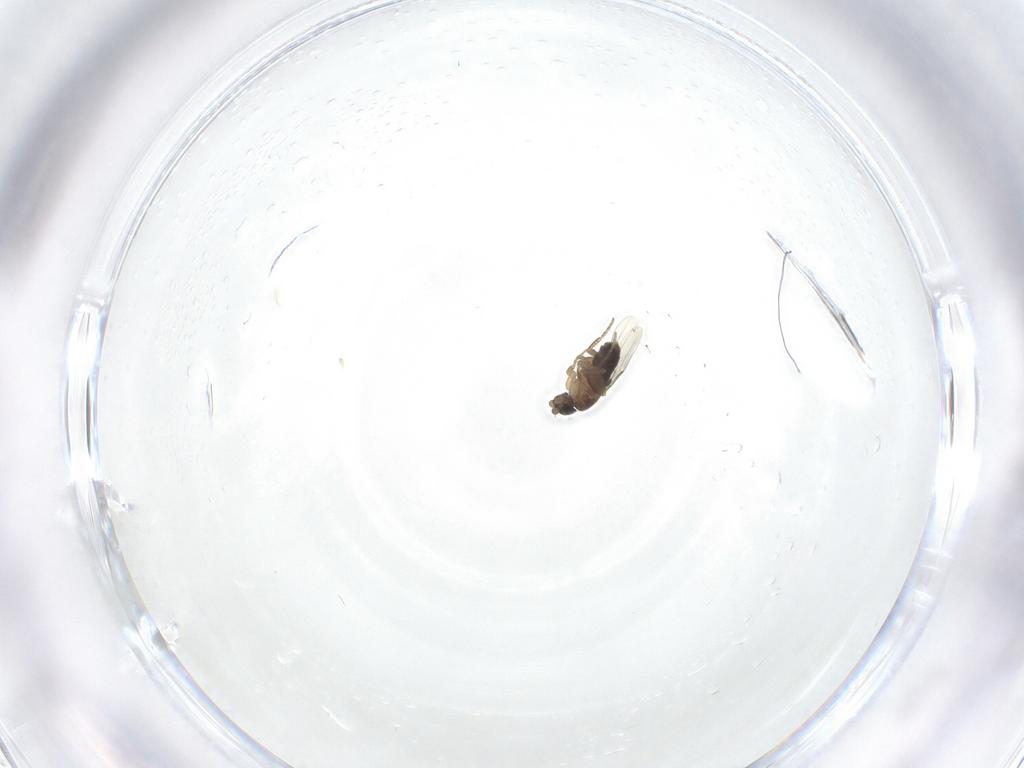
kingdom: Animalia
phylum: Arthropoda
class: Insecta
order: Diptera
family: Phoridae
